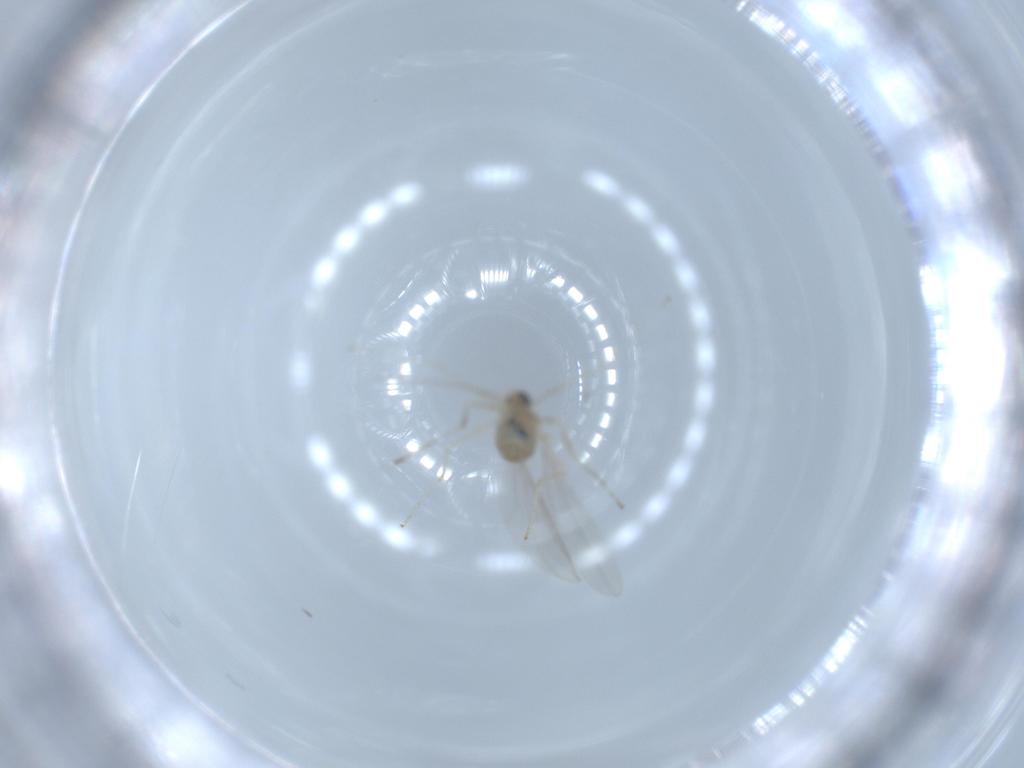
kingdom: Animalia
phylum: Arthropoda
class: Insecta
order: Diptera
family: Cecidomyiidae
